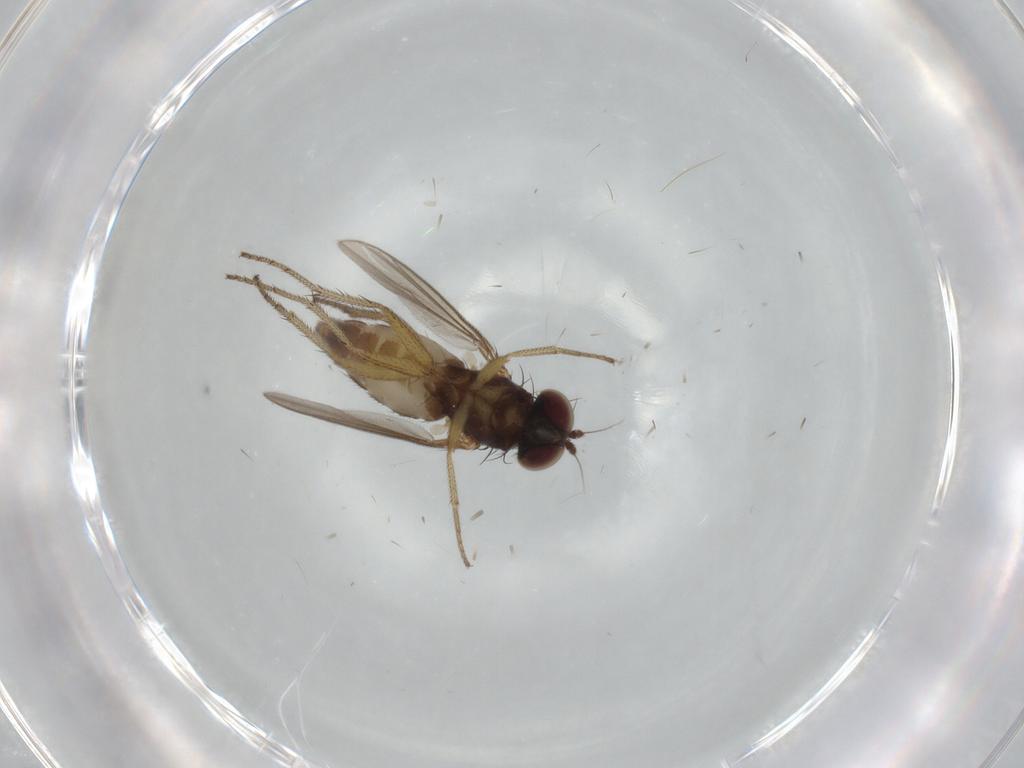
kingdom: Animalia
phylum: Arthropoda
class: Insecta
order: Diptera
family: Dolichopodidae
